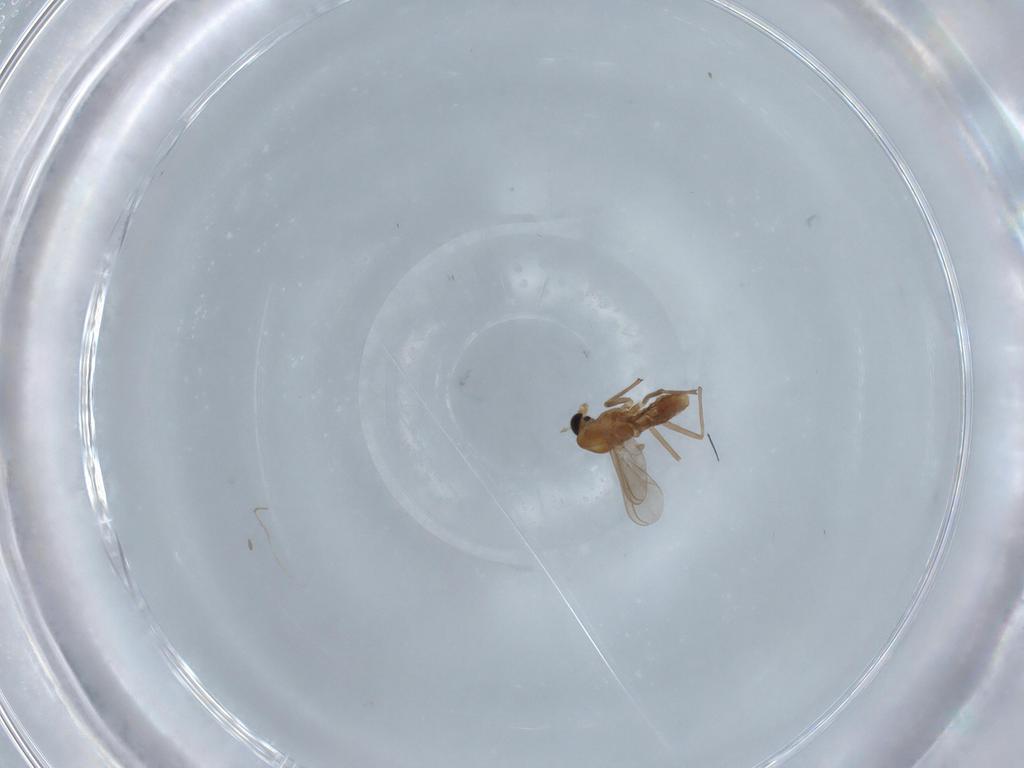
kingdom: Animalia
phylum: Arthropoda
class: Insecta
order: Diptera
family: Chironomidae
